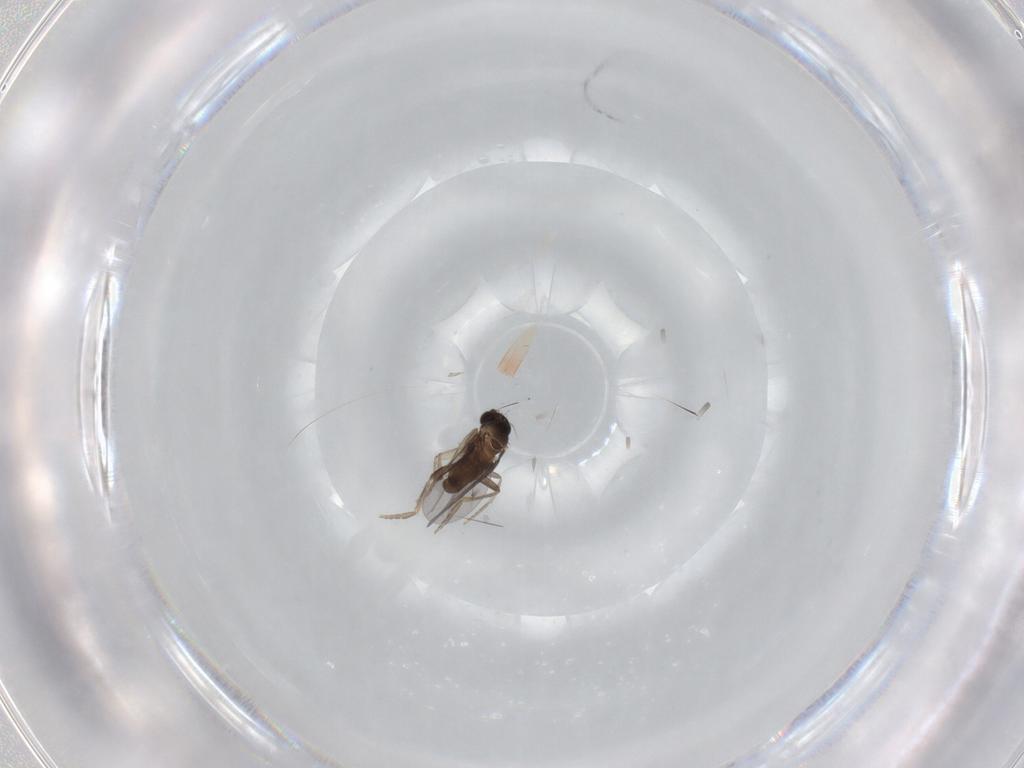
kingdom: Animalia
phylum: Arthropoda
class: Insecta
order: Diptera
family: Phoridae
